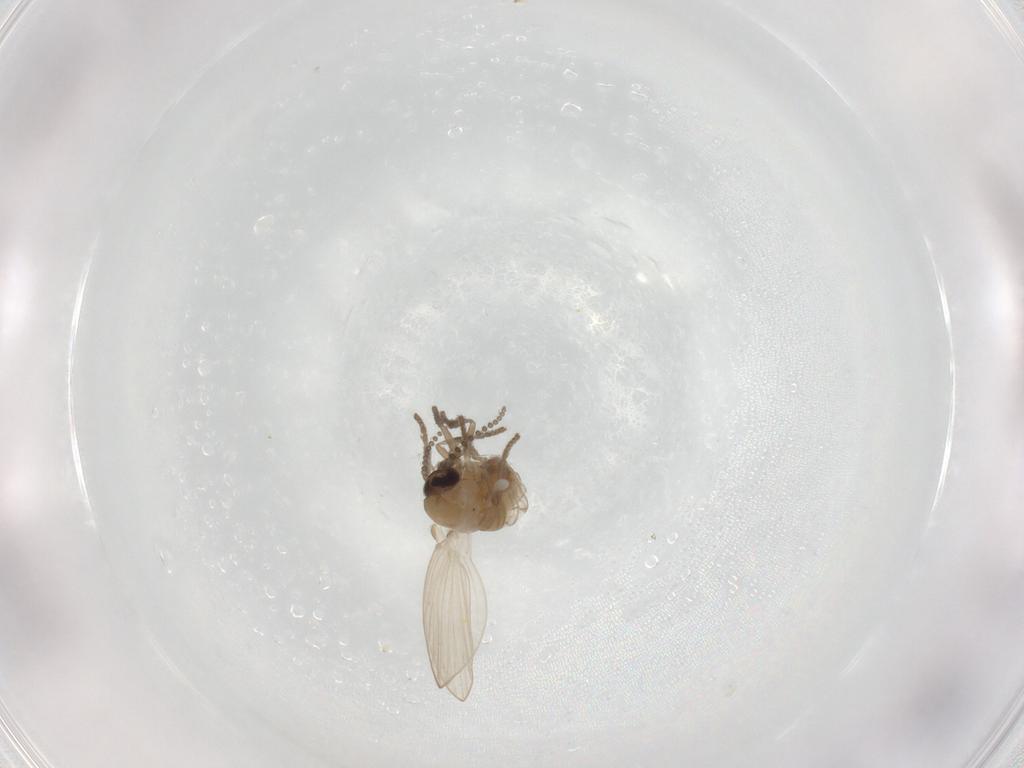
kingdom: Animalia
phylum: Arthropoda
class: Insecta
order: Diptera
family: Psychodidae
